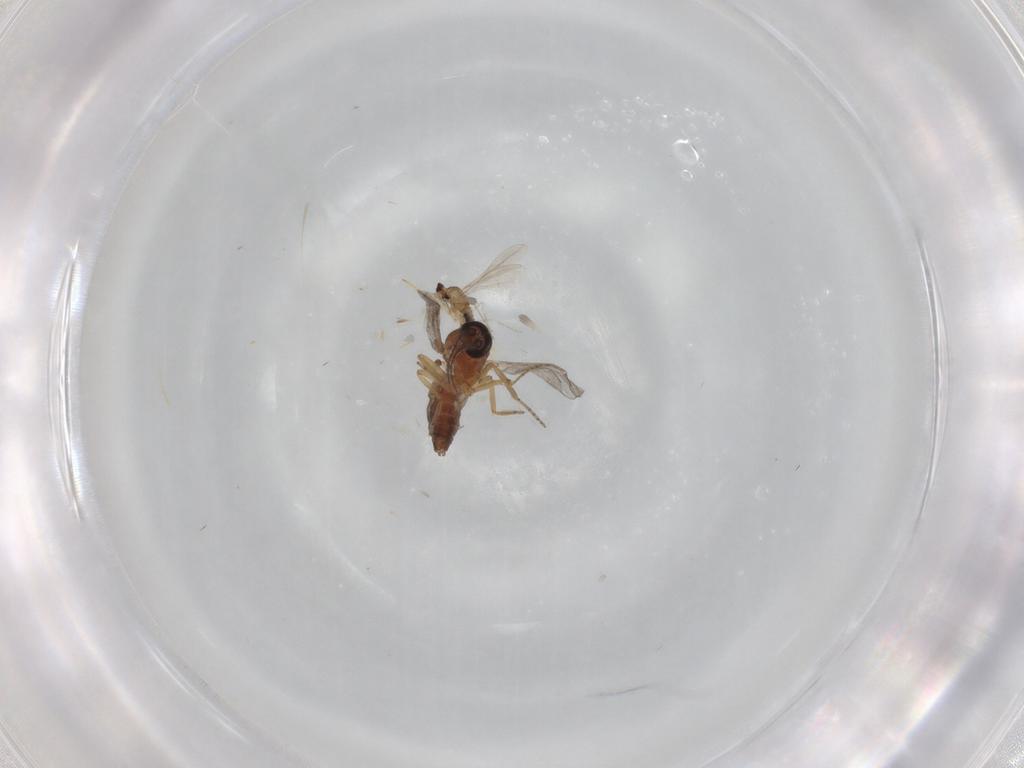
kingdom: Animalia
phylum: Arthropoda
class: Insecta
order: Diptera
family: Ceratopogonidae
